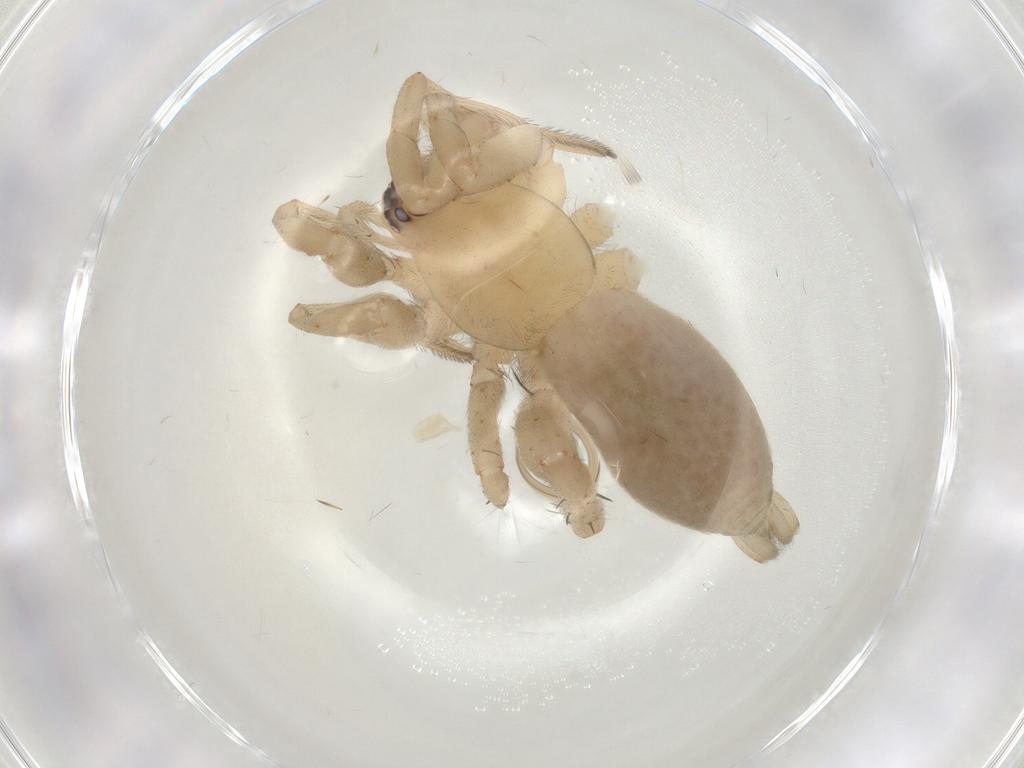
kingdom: Animalia
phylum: Arthropoda
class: Arachnida
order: Araneae
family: Gnaphosidae
